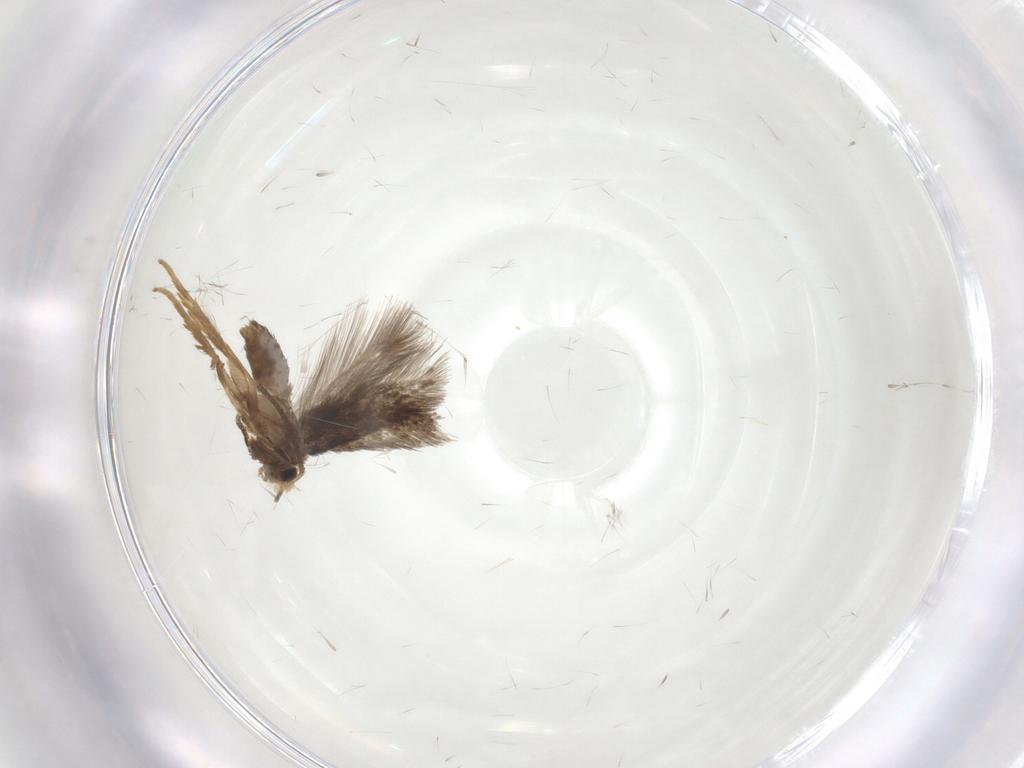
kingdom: Animalia
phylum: Arthropoda
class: Insecta
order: Lepidoptera
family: Nepticulidae
